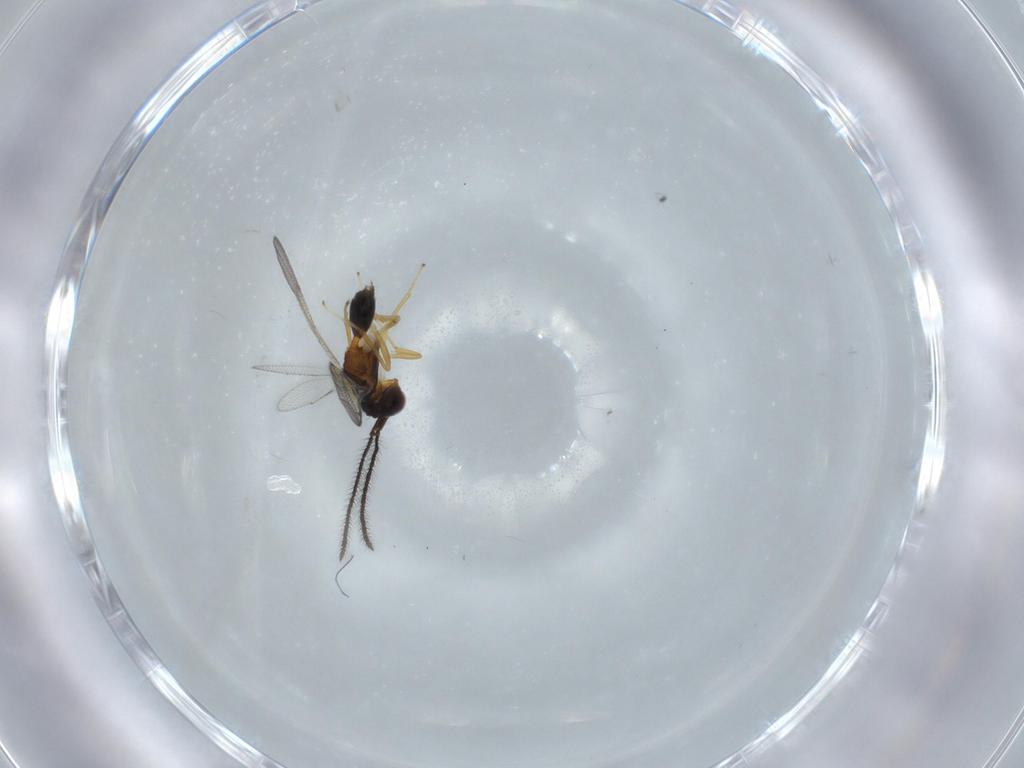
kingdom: Animalia
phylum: Arthropoda
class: Insecta
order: Hymenoptera
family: Diparidae
